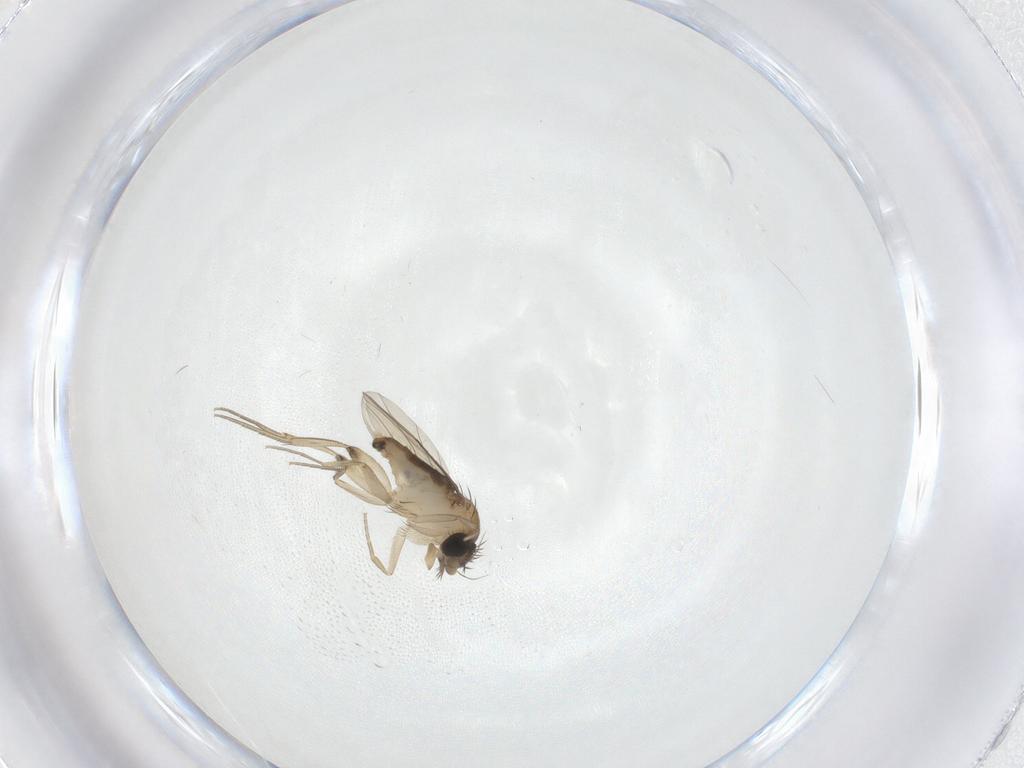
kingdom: Animalia
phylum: Arthropoda
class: Insecta
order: Diptera
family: Phoridae
